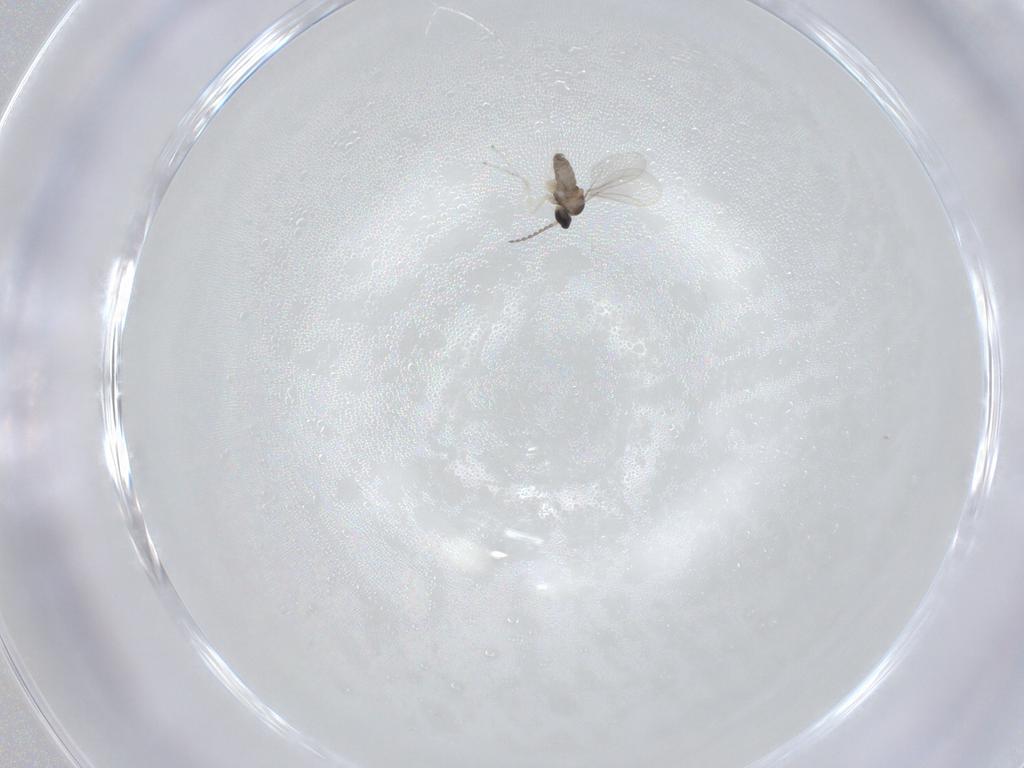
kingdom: Animalia
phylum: Arthropoda
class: Insecta
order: Diptera
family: Cecidomyiidae
